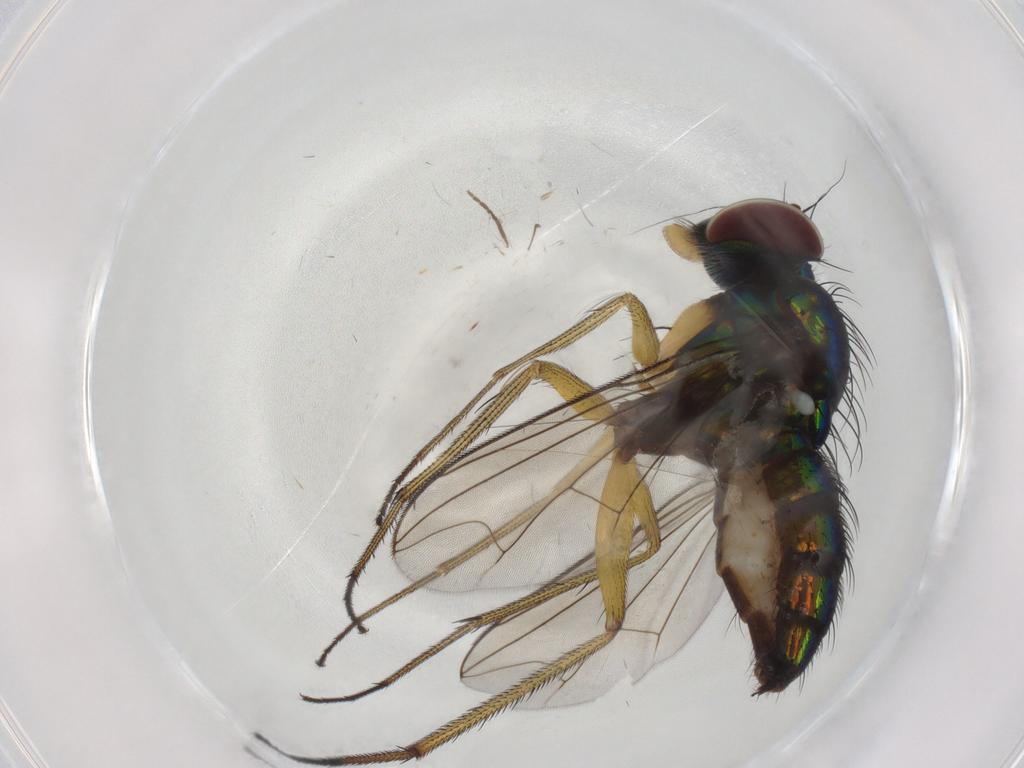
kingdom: Animalia
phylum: Arthropoda
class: Insecta
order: Diptera
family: Dolichopodidae
